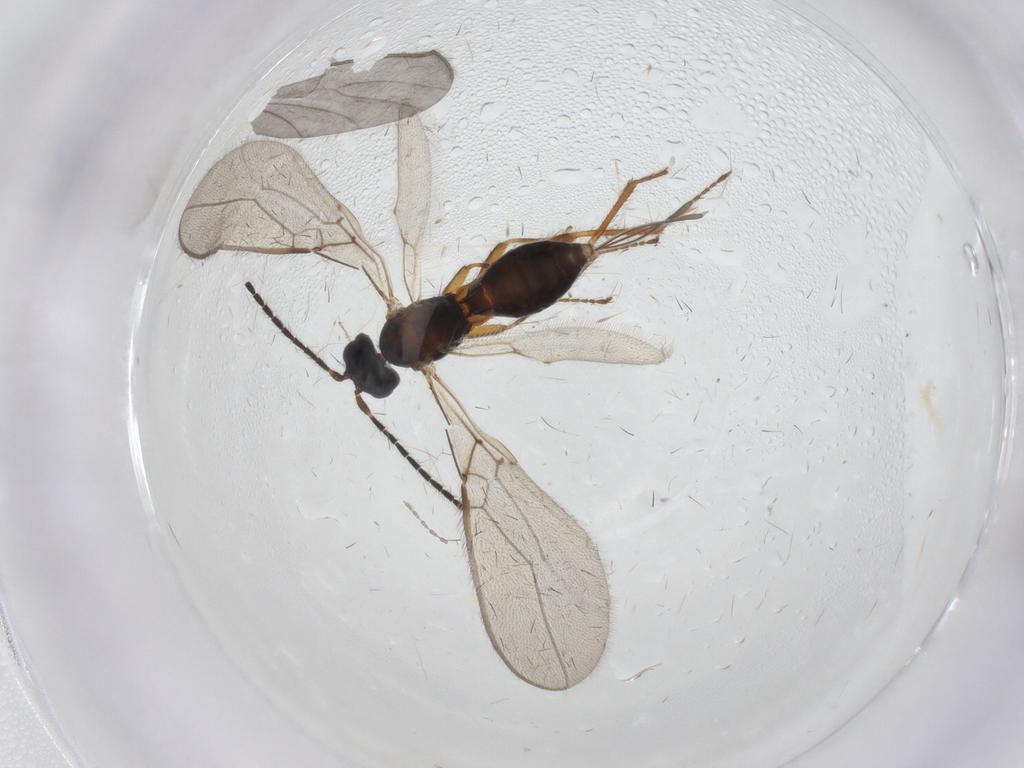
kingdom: Animalia
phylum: Arthropoda
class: Insecta
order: Hymenoptera
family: Braconidae
